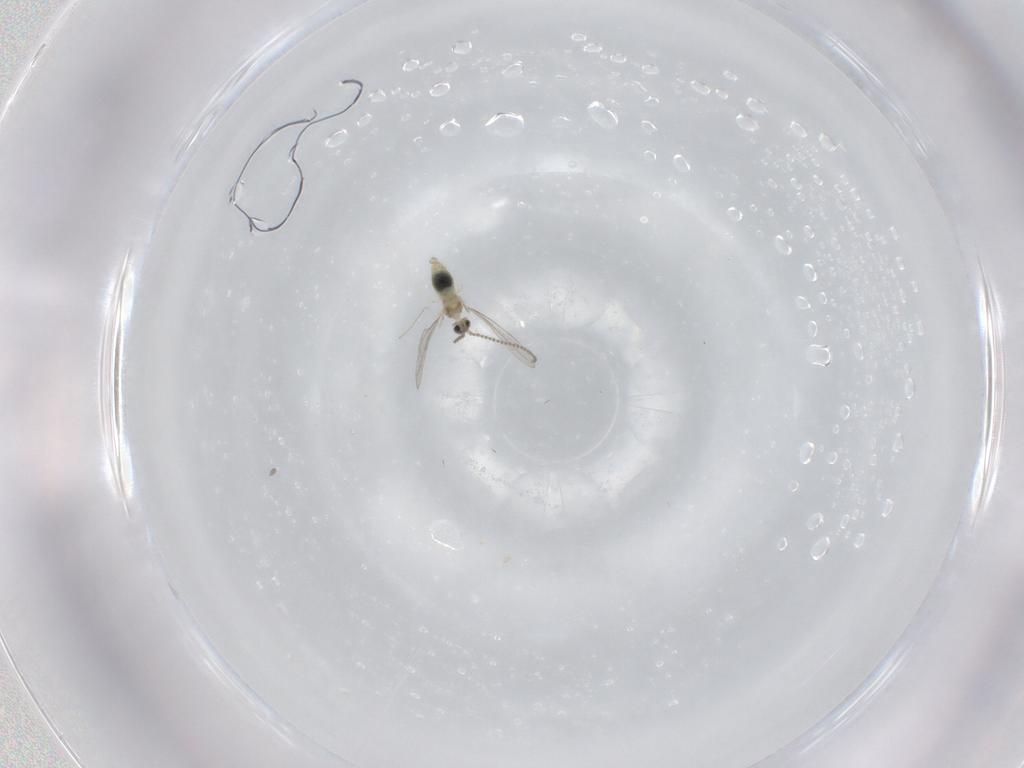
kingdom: Animalia
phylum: Arthropoda
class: Insecta
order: Diptera
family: Cecidomyiidae
